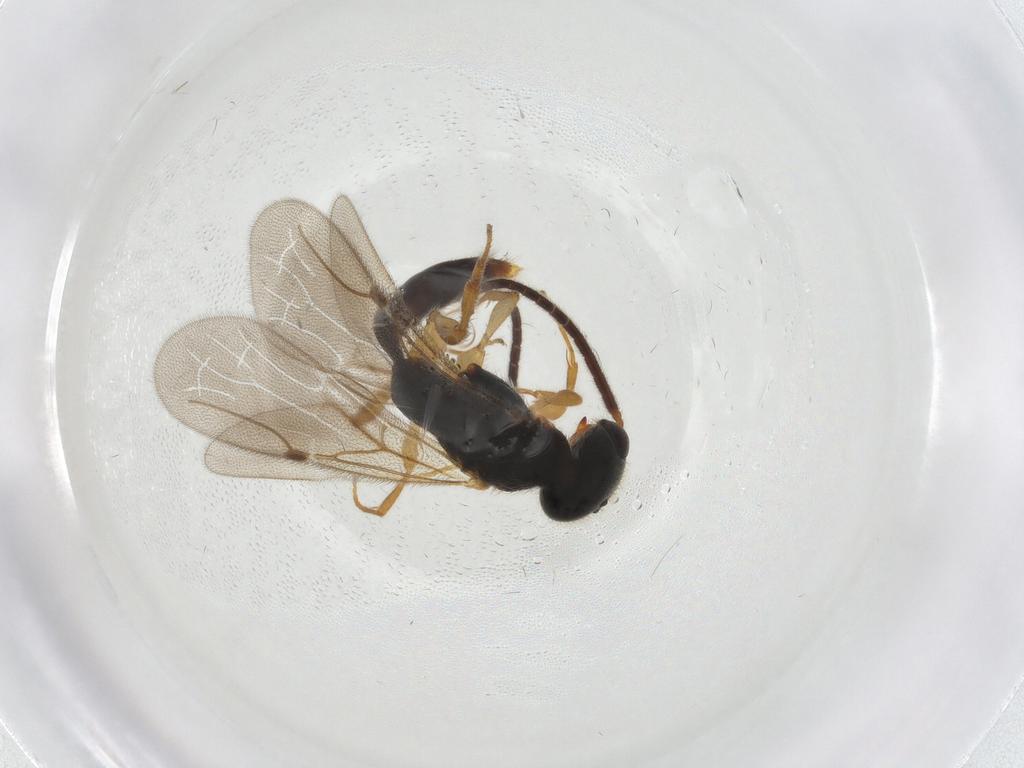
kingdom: Animalia
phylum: Arthropoda
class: Insecta
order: Hymenoptera
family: Bethylidae
